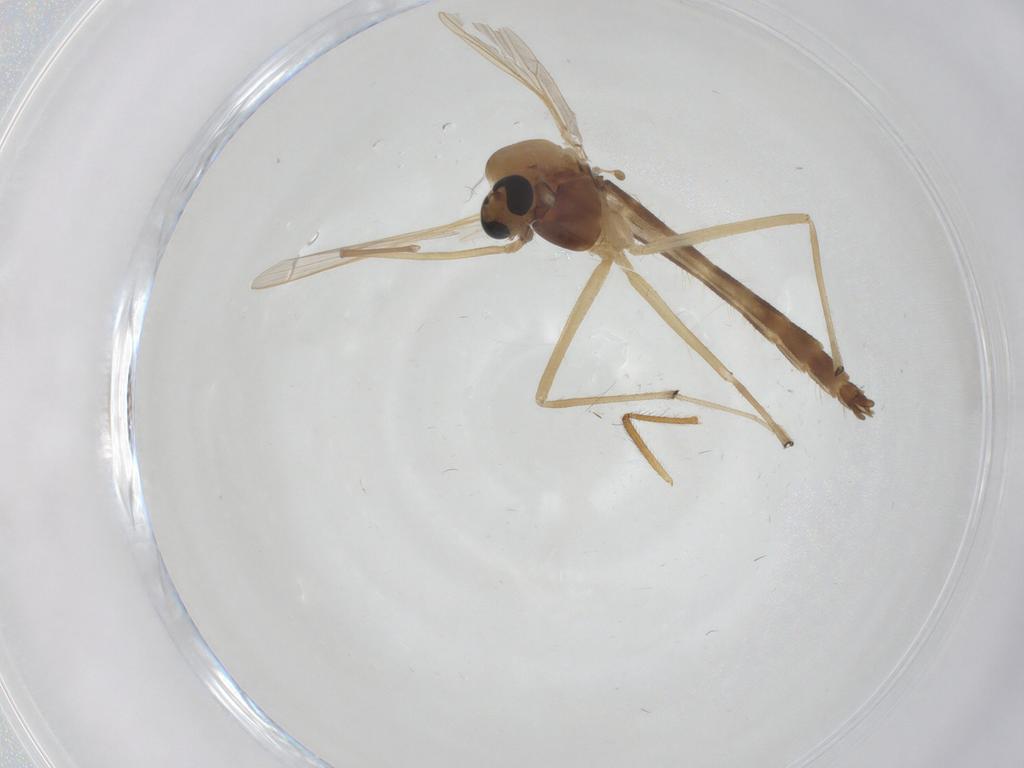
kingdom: Animalia
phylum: Arthropoda
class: Insecta
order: Diptera
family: Chironomidae
